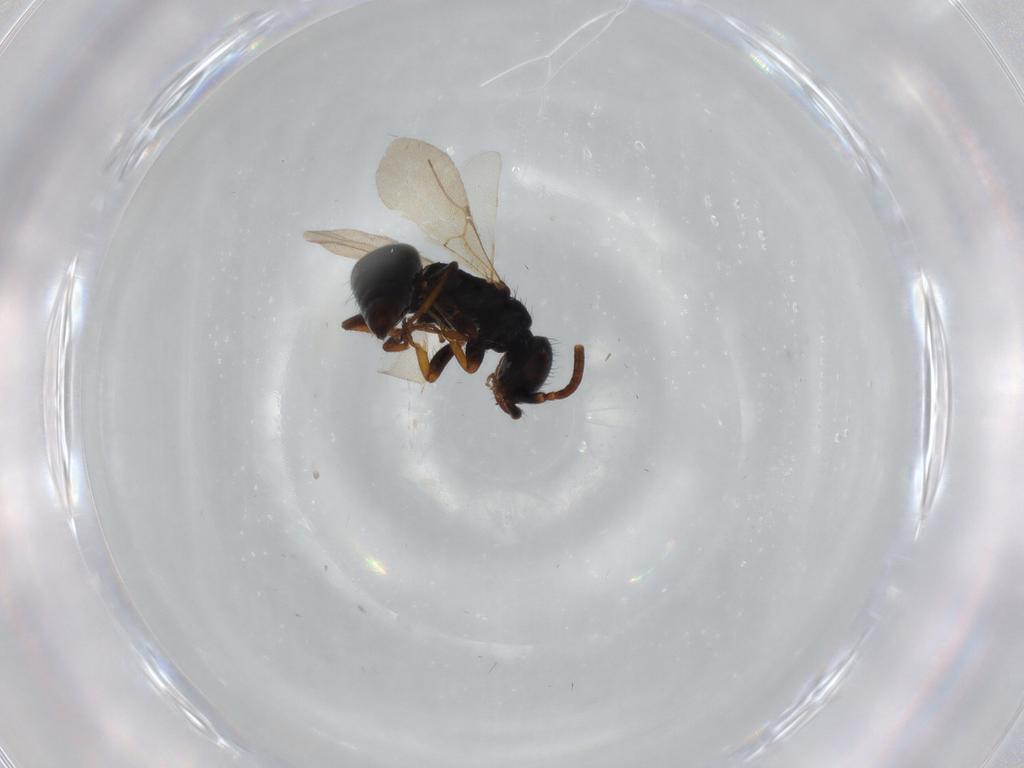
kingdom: Animalia
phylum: Arthropoda
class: Insecta
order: Hymenoptera
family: Bethylidae
